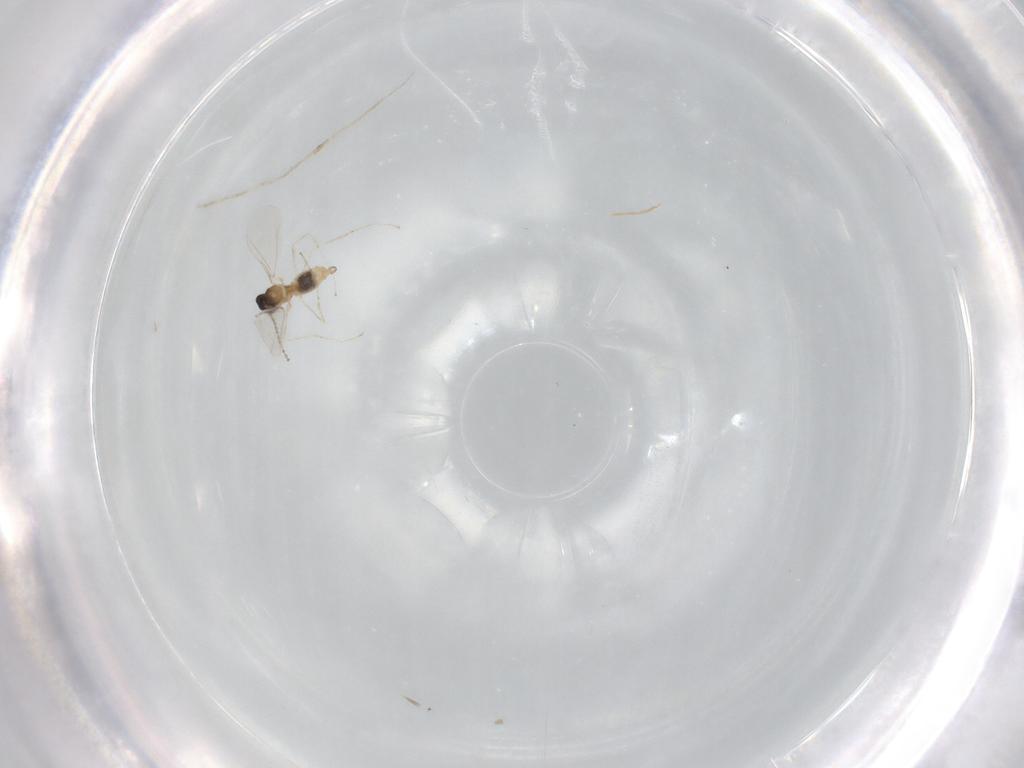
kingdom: Animalia
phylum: Arthropoda
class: Insecta
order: Diptera
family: Cecidomyiidae
